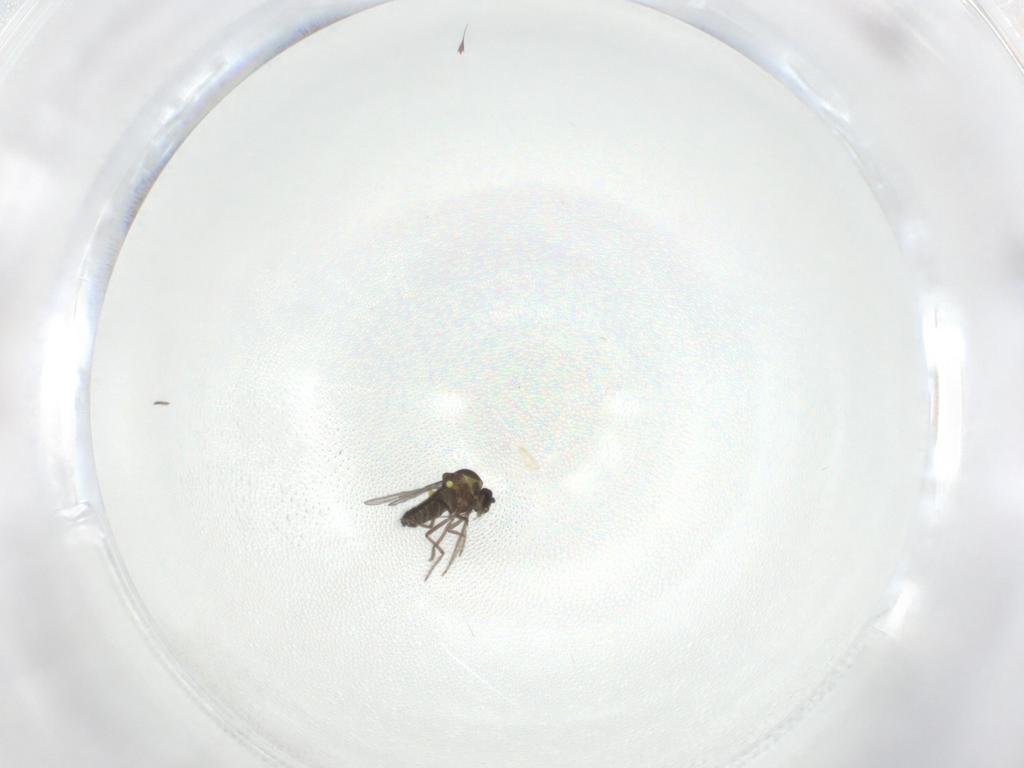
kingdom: Animalia
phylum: Arthropoda
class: Insecta
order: Diptera
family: Ceratopogonidae
